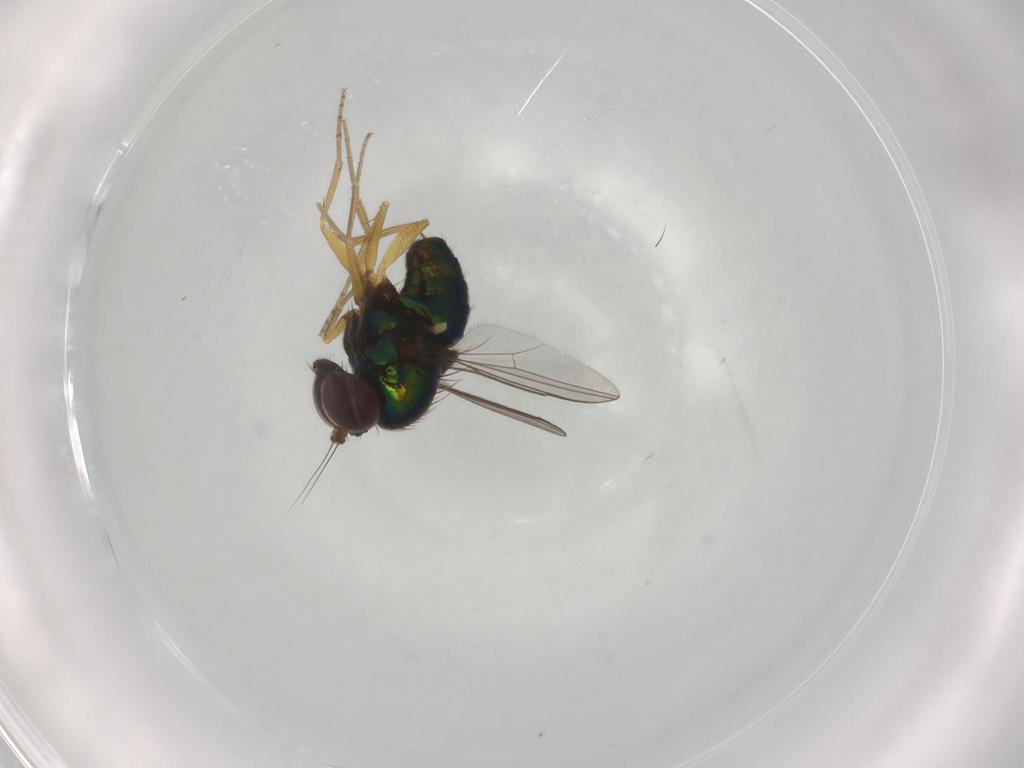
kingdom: Animalia
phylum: Arthropoda
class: Insecta
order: Diptera
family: Dolichopodidae
